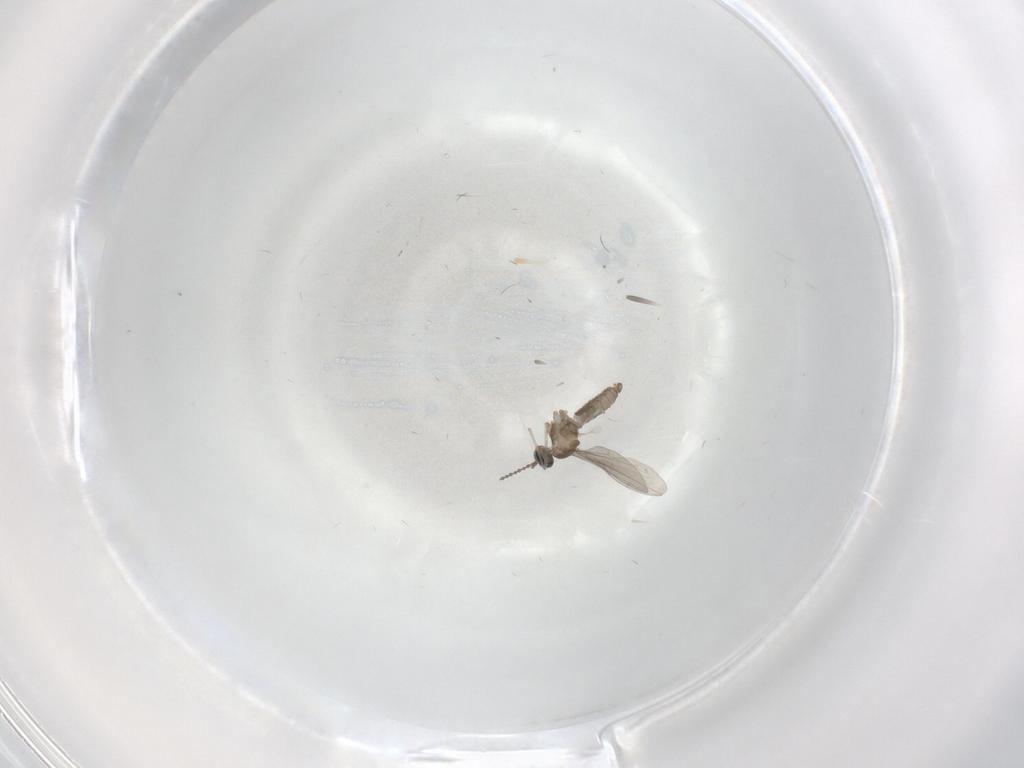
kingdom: Animalia
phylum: Arthropoda
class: Insecta
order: Diptera
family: Cecidomyiidae
